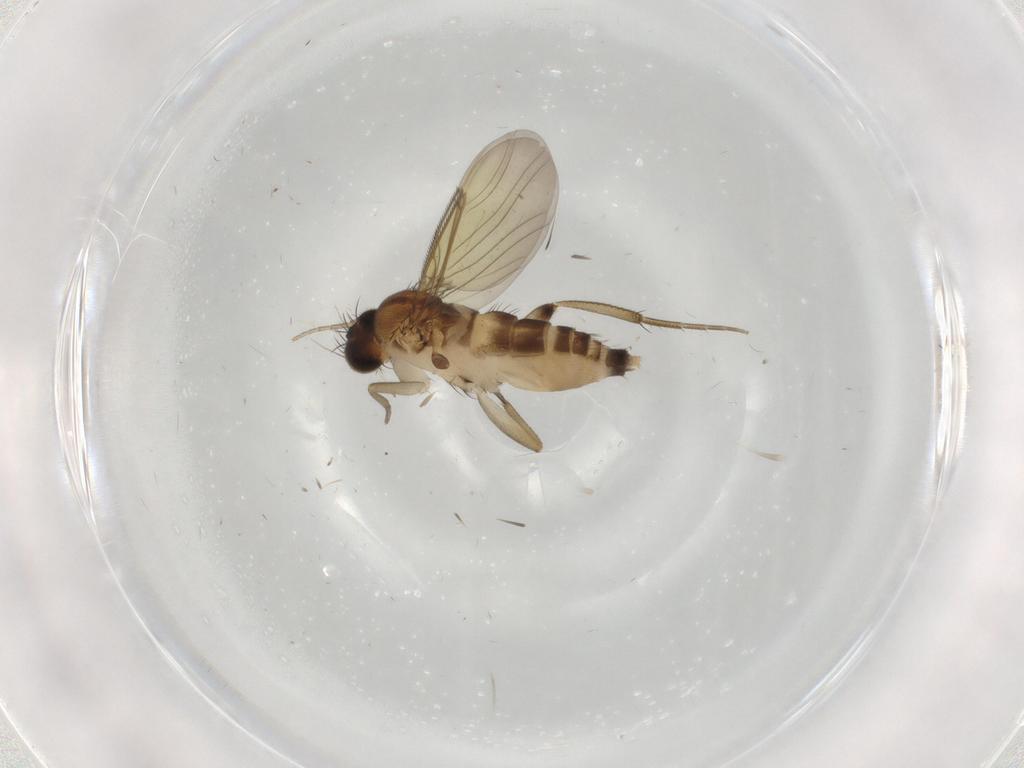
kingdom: Animalia
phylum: Arthropoda
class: Insecta
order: Diptera
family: Phoridae
